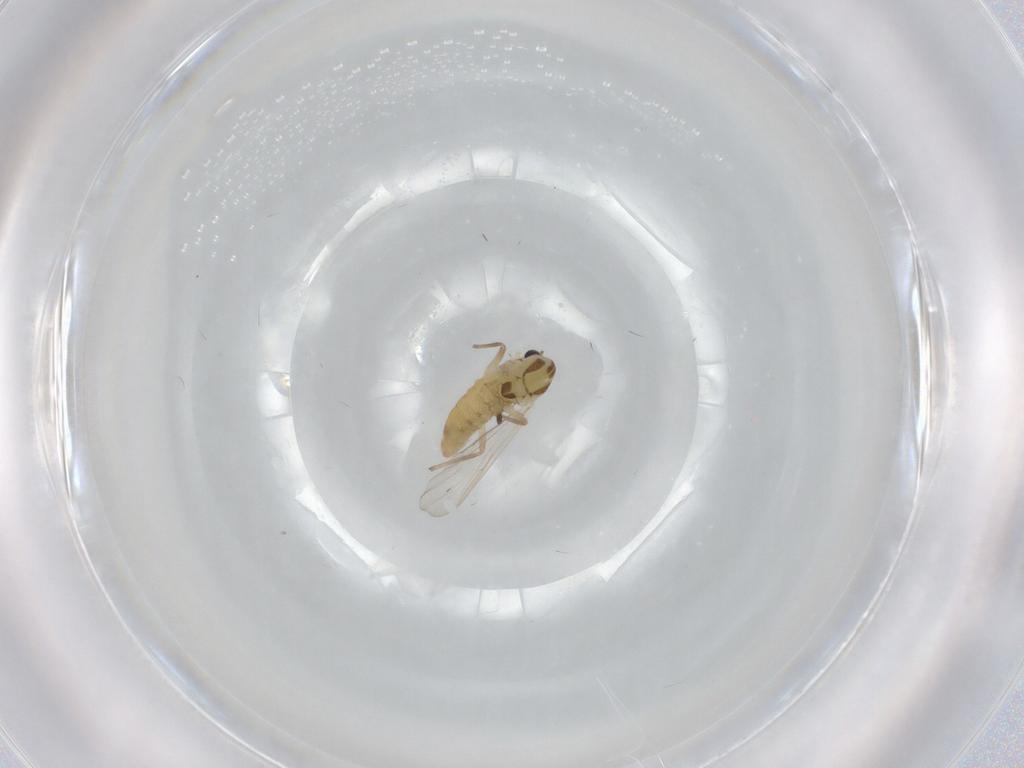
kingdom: Animalia
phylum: Arthropoda
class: Insecta
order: Diptera
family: Chironomidae
